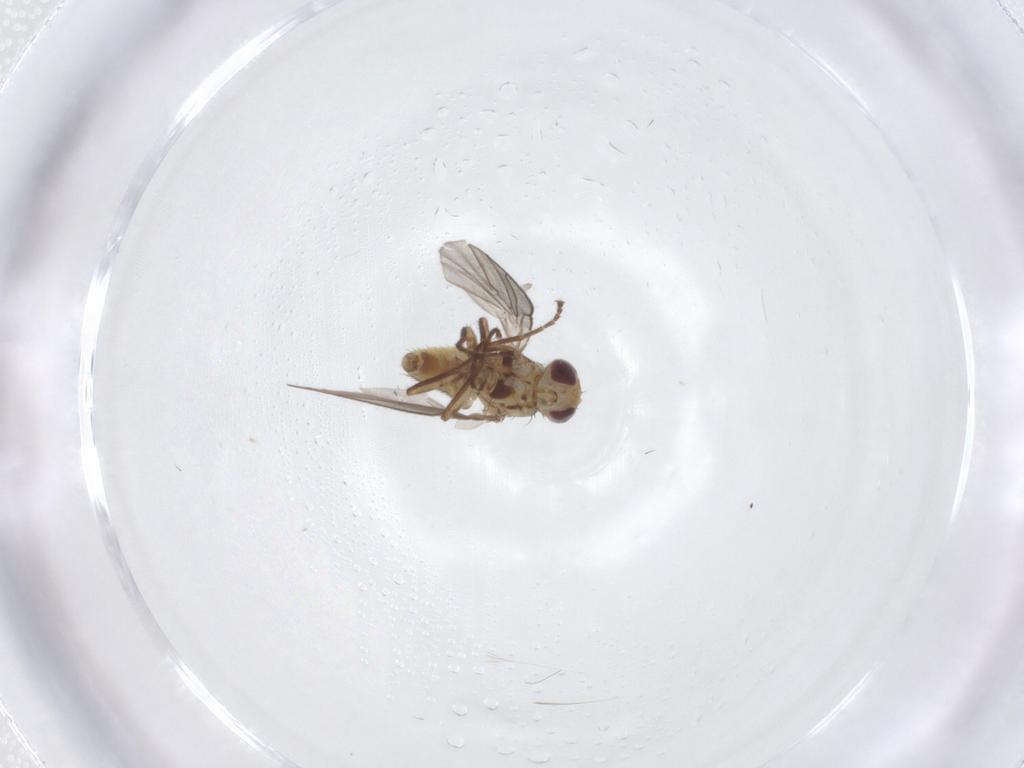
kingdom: Animalia
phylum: Arthropoda
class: Insecta
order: Diptera
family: Agromyzidae
